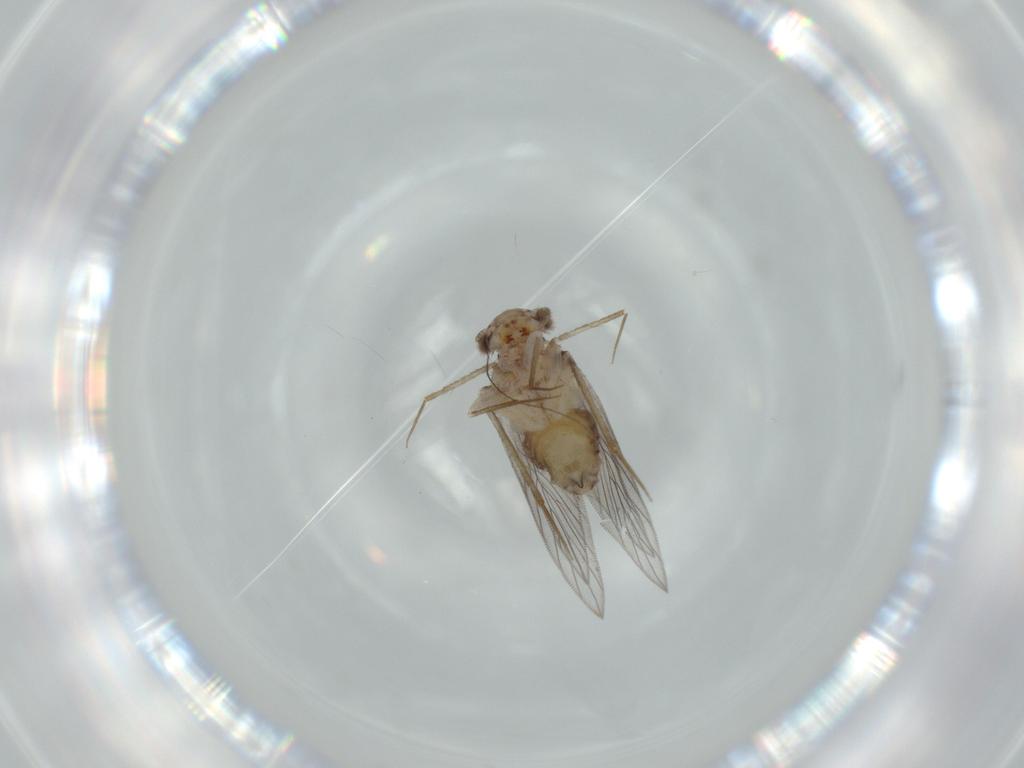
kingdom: Animalia
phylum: Arthropoda
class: Insecta
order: Psocodea
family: Lepidopsocidae
